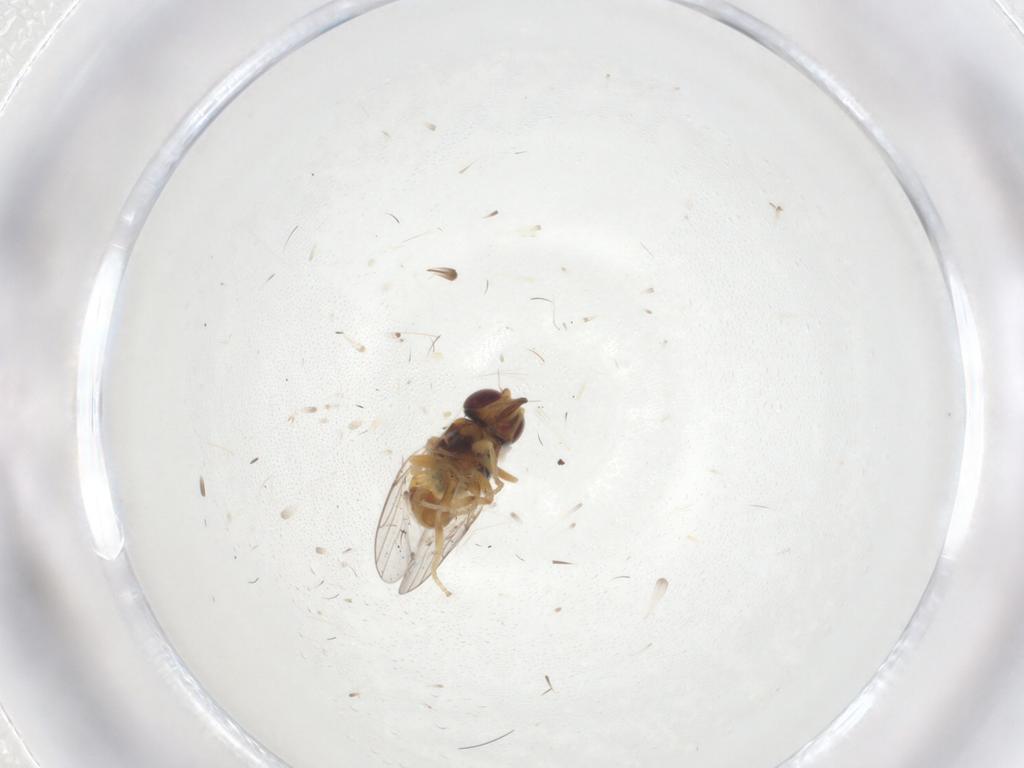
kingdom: Animalia
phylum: Arthropoda
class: Insecta
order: Diptera
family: Chloropidae
